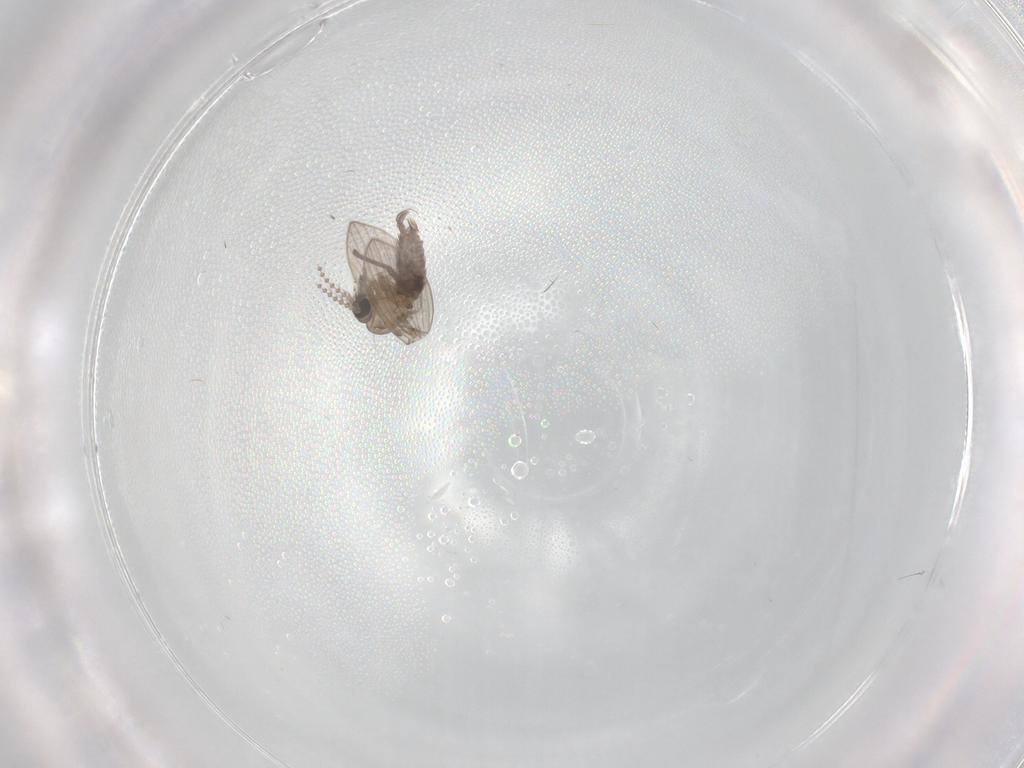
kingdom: Animalia
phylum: Arthropoda
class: Insecta
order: Diptera
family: Psychodidae
